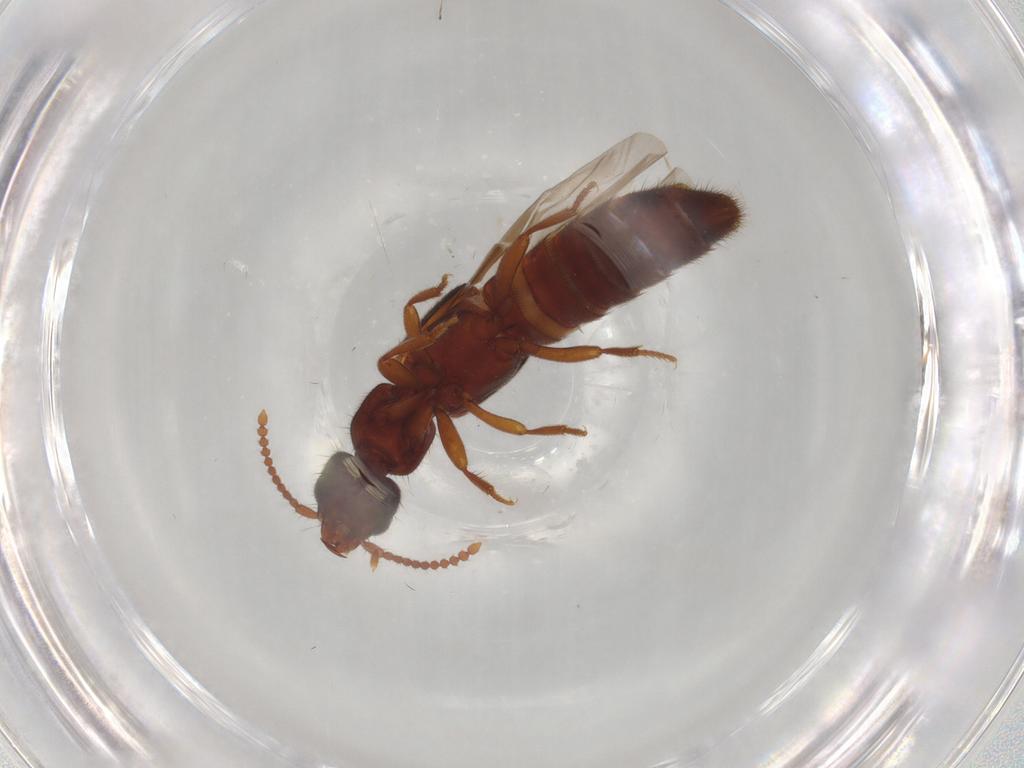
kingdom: Animalia
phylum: Arthropoda
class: Insecta
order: Coleoptera
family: Staphylinidae
